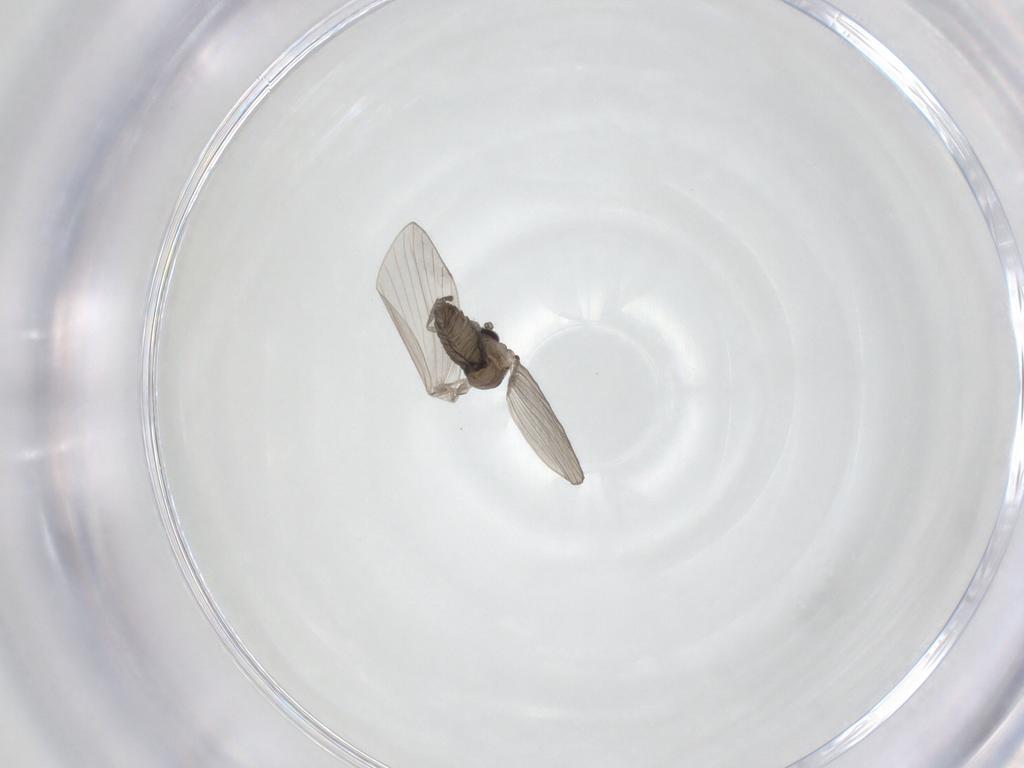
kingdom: Animalia
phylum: Arthropoda
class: Insecta
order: Diptera
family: Psychodidae
